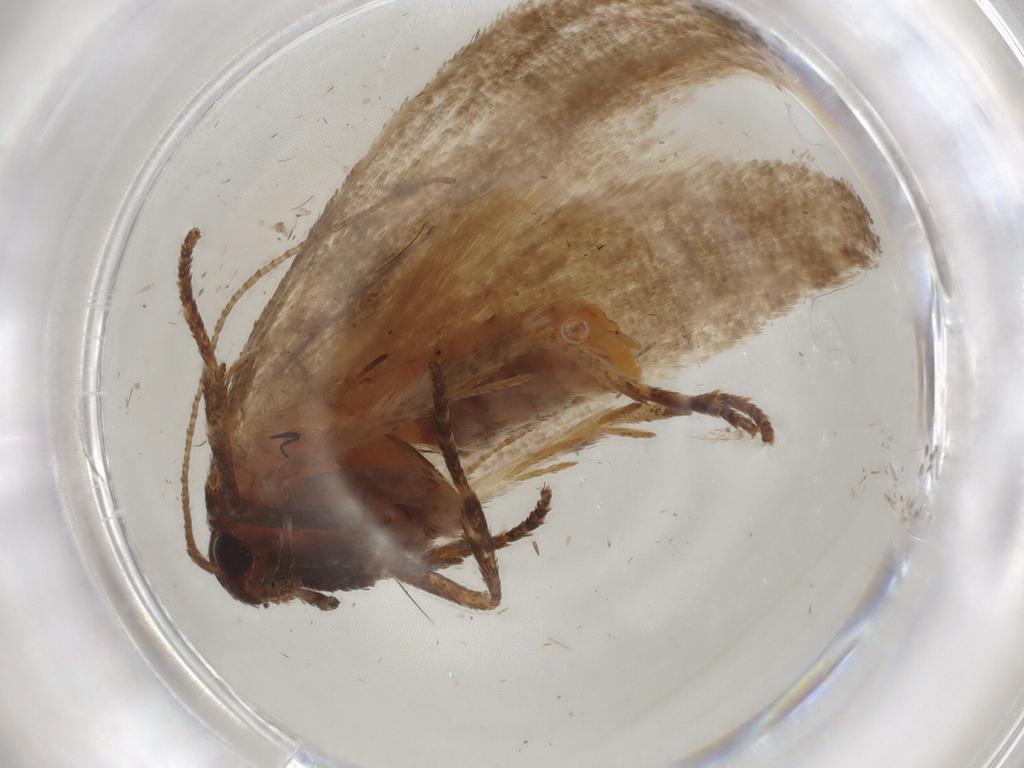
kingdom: Animalia
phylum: Arthropoda
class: Insecta
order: Lepidoptera
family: Cosmopterigidae
